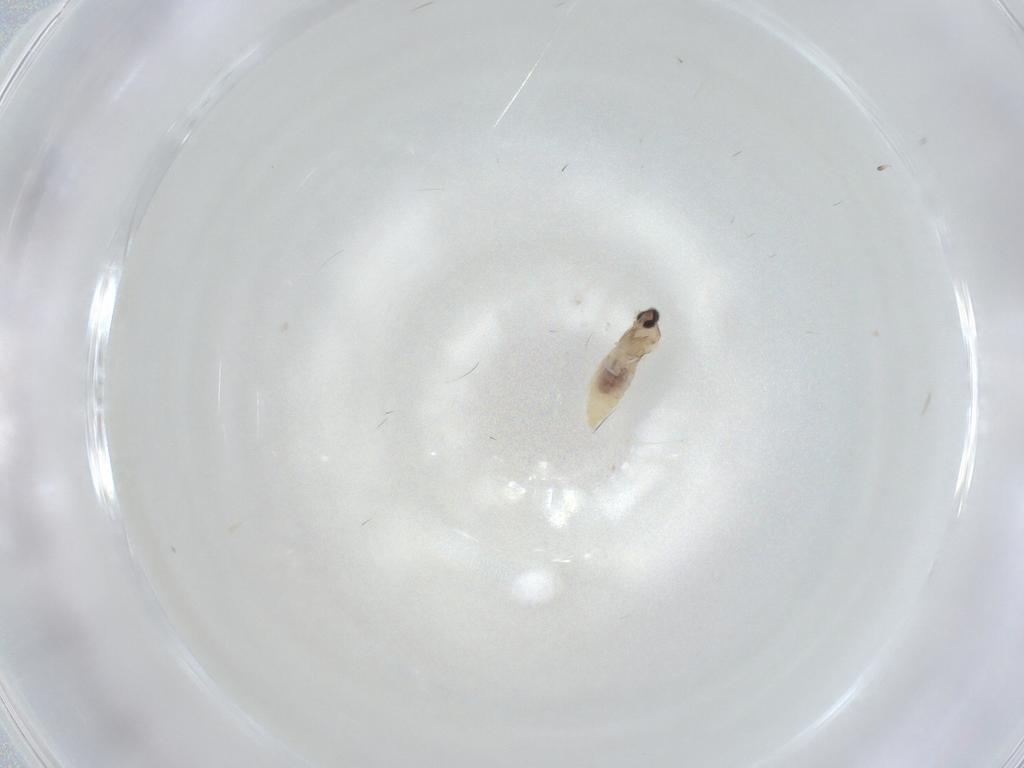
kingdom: Animalia
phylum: Arthropoda
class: Insecta
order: Diptera
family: Cecidomyiidae
